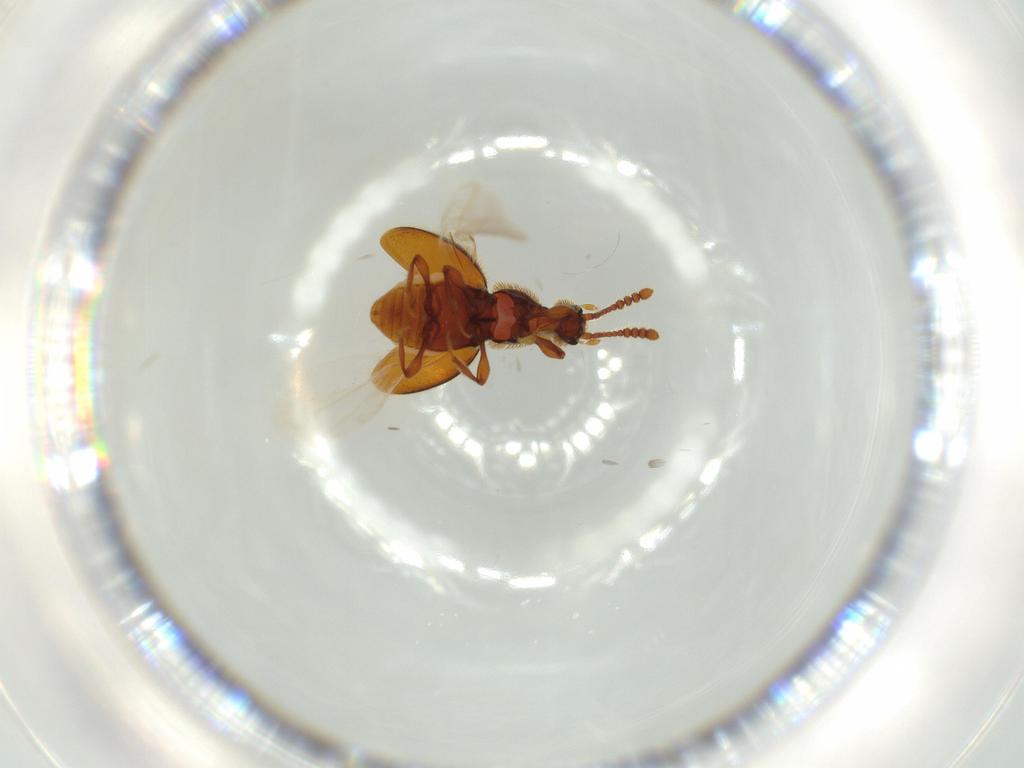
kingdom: Animalia
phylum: Arthropoda
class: Insecta
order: Coleoptera
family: Staphylinidae
